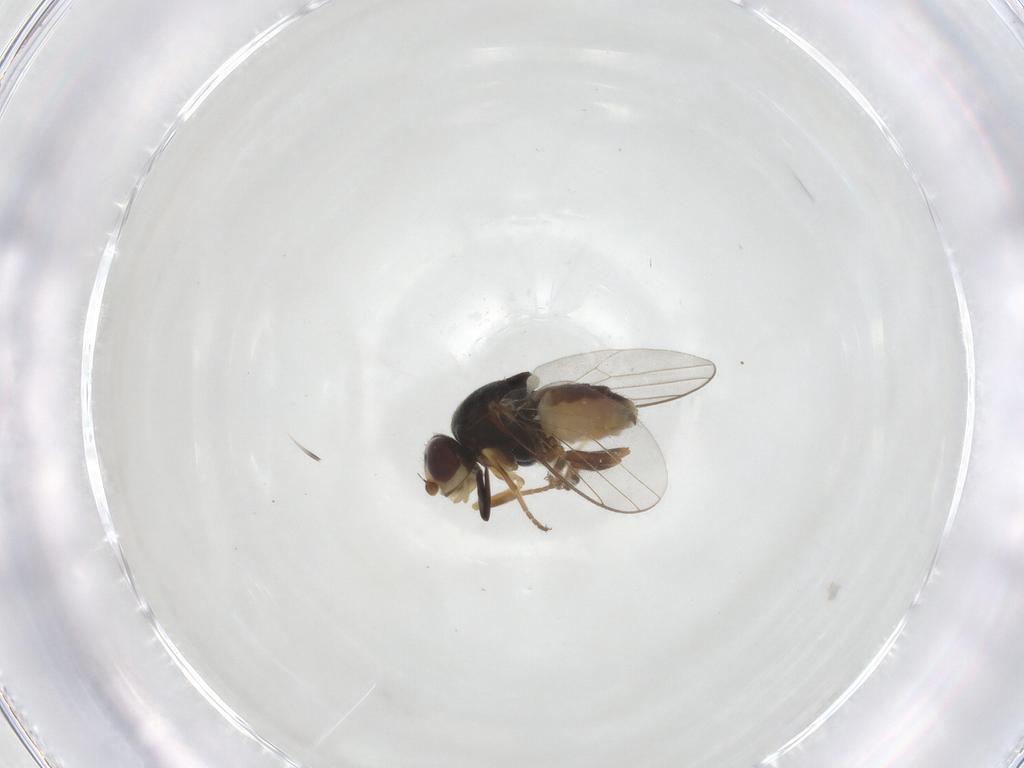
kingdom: Animalia
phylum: Arthropoda
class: Insecta
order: Diptera
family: Chloropidae
